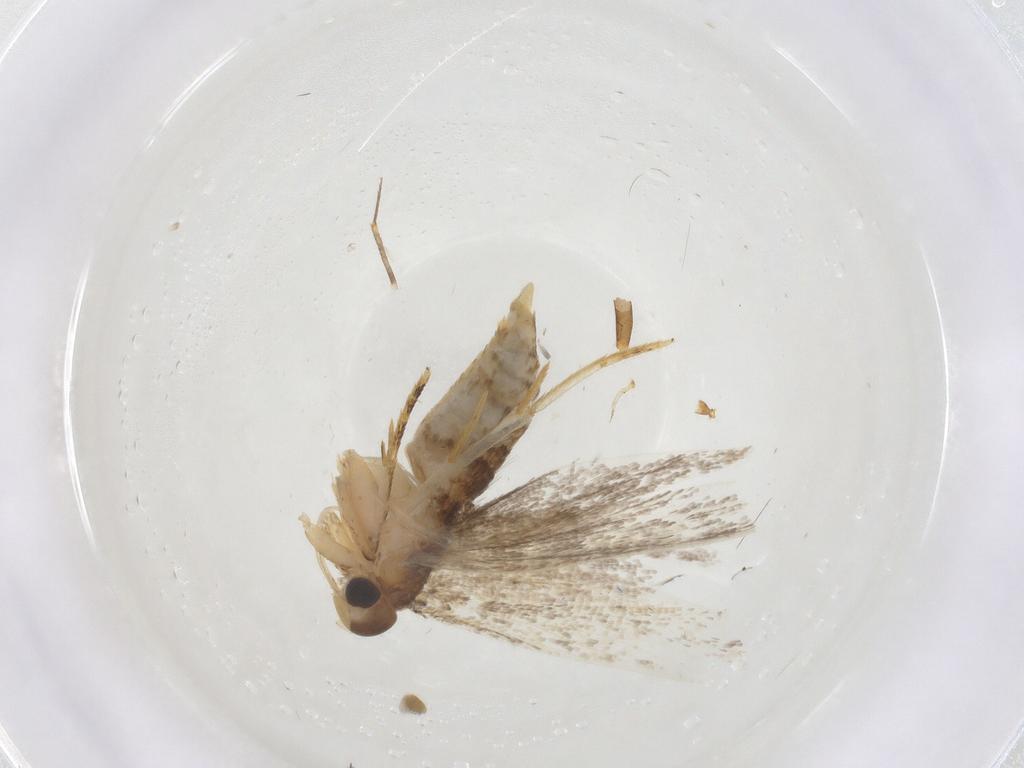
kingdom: Animalia
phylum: Arthropoda
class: Insecta
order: Lepidoptera
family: Oecophoridae
